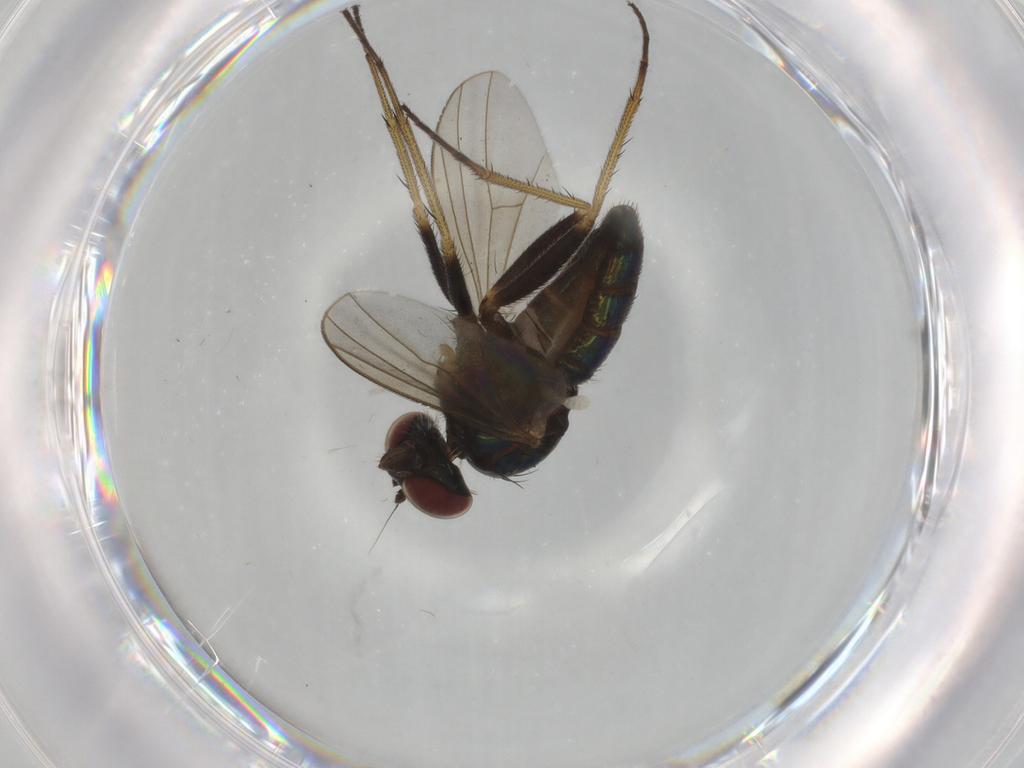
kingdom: Animalia
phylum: Arthropoda
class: Insecta
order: Diptera
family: Dolichopodidae
